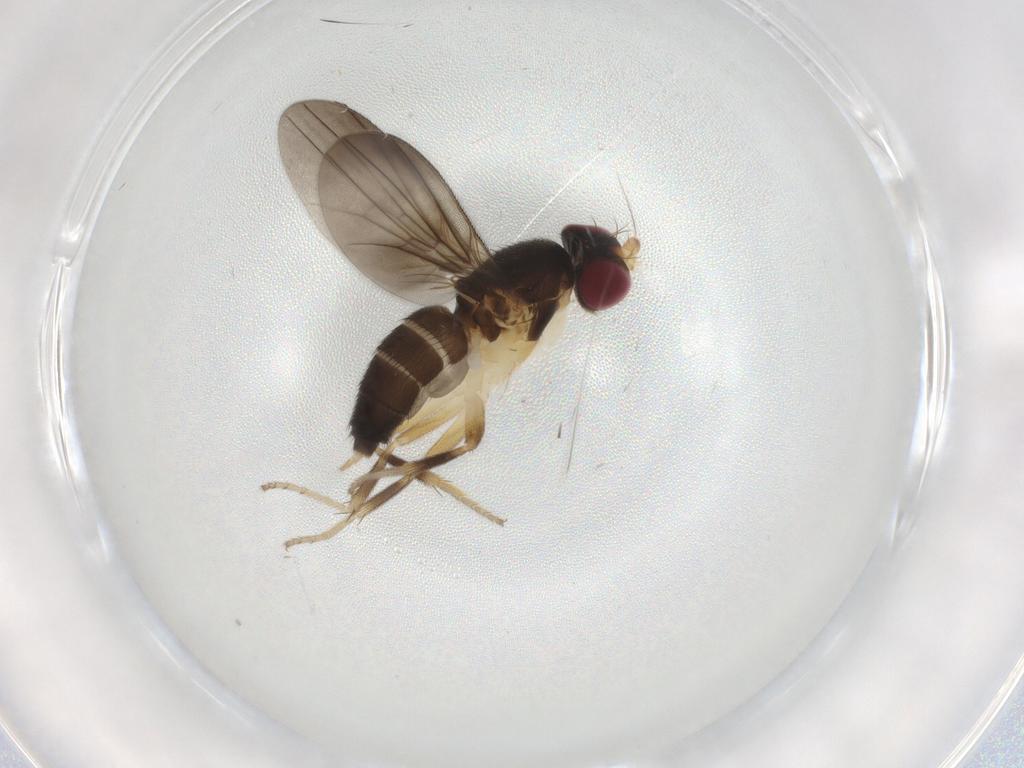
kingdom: Animalia
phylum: Arthropoda
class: Insecta
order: Diptera
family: Clusiidae
